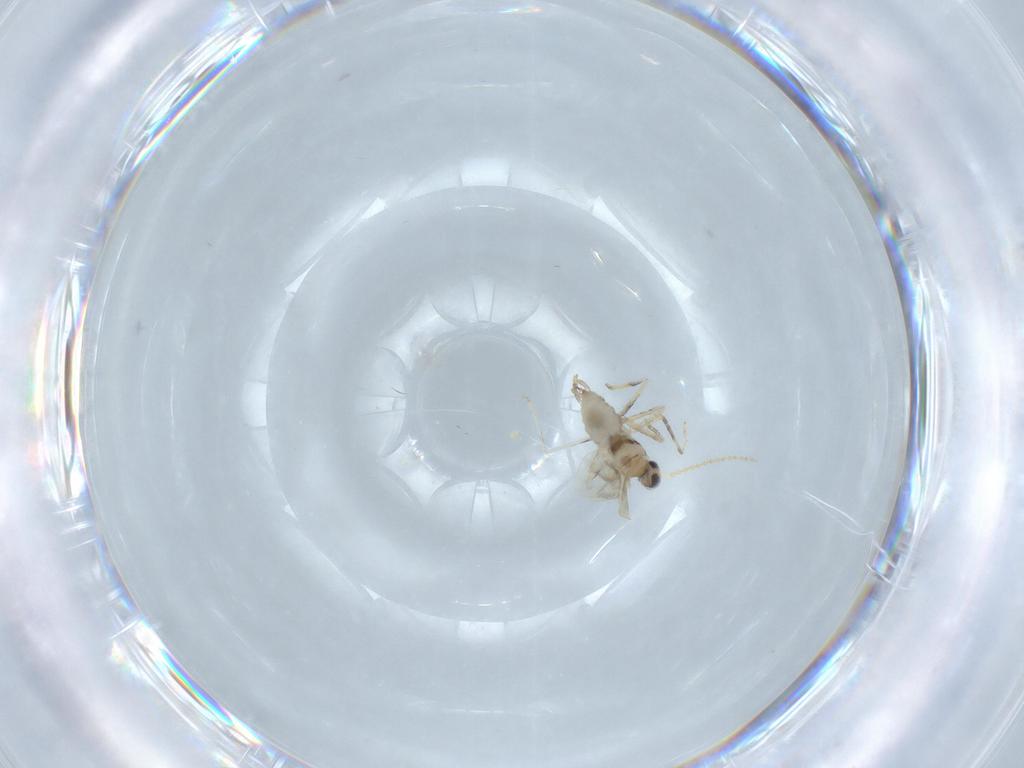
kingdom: Animalia
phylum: Arthropoda
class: Insecta
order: Diptera
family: Cecidomyiidae
